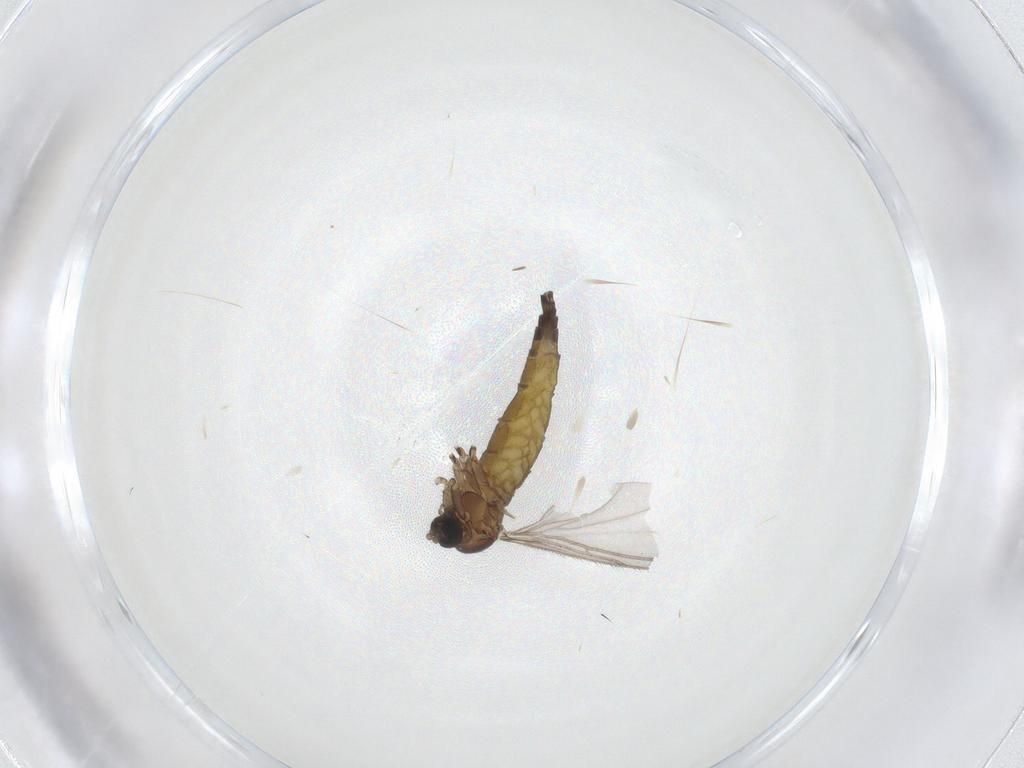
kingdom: Animalia
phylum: Arthropoda
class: Insecta
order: Diptera
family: Sciaridae
